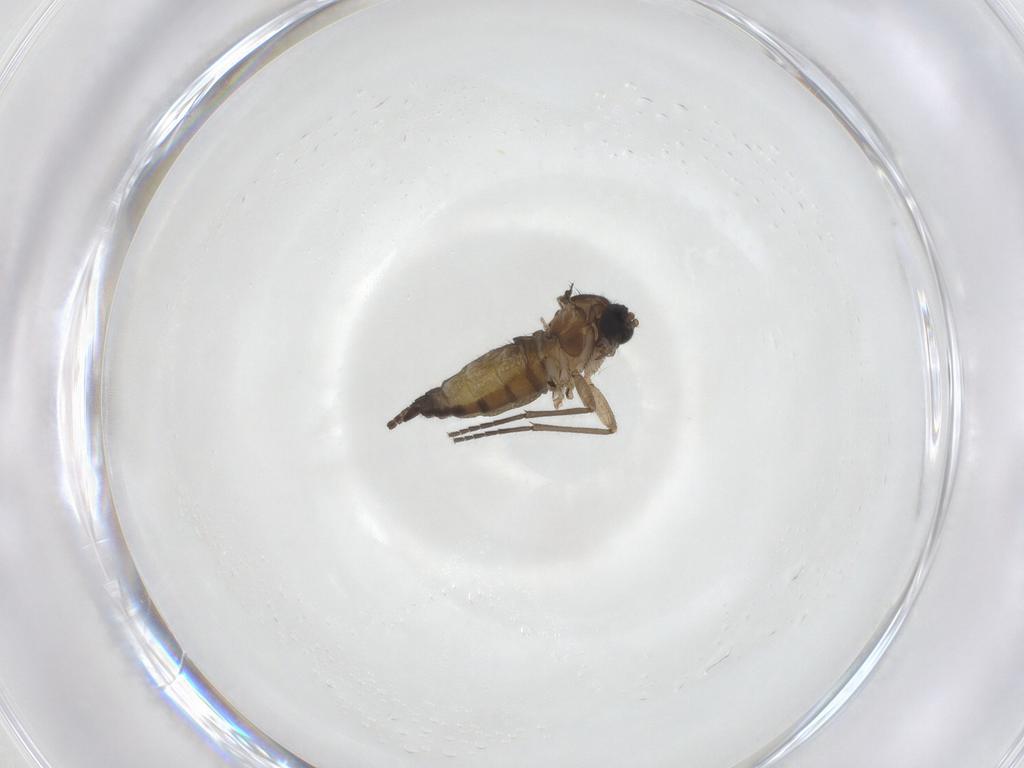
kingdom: Animalia
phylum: Arthropoda
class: Insecta
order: Diptera
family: Sciaridae
